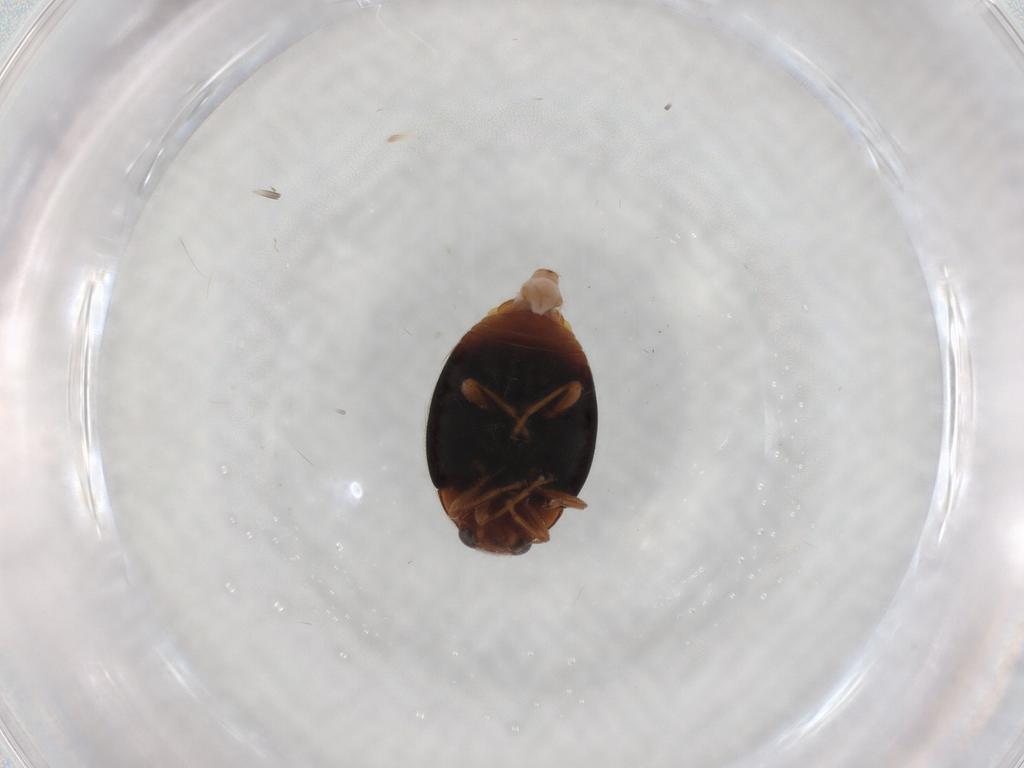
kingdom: Animalia
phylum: Arthropoda
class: Insecta
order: Coleoptera
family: Coccinellidae
